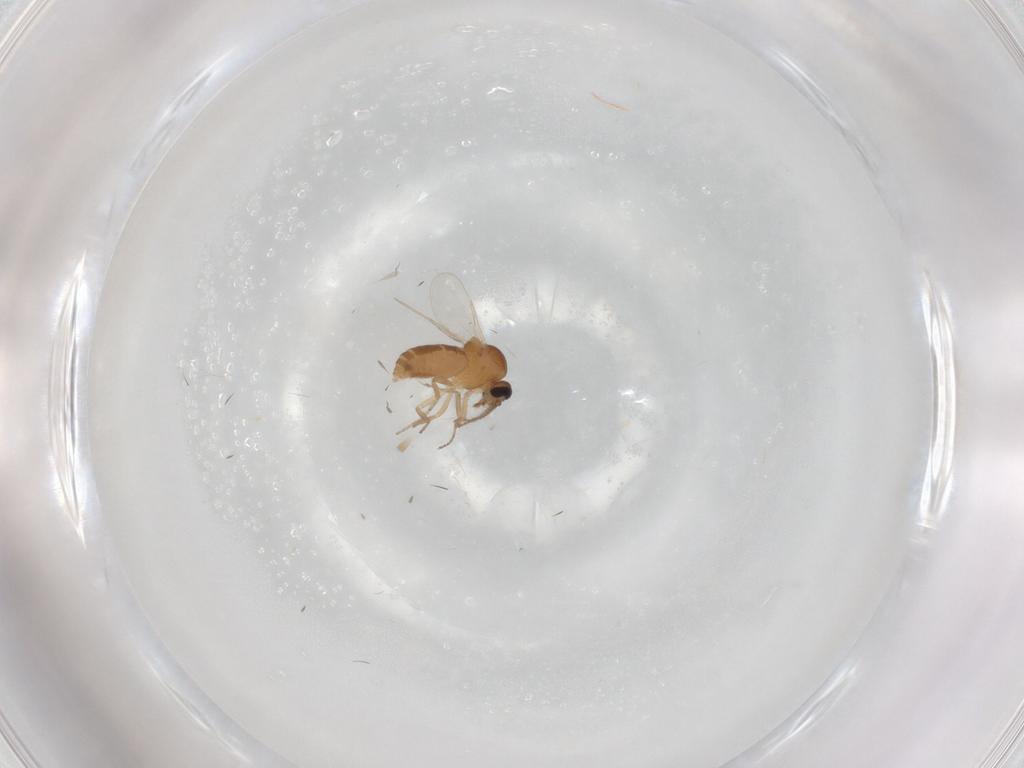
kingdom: Animalia
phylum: Arthropoda
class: Insecta
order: Diptera
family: Ceratopogonidae
